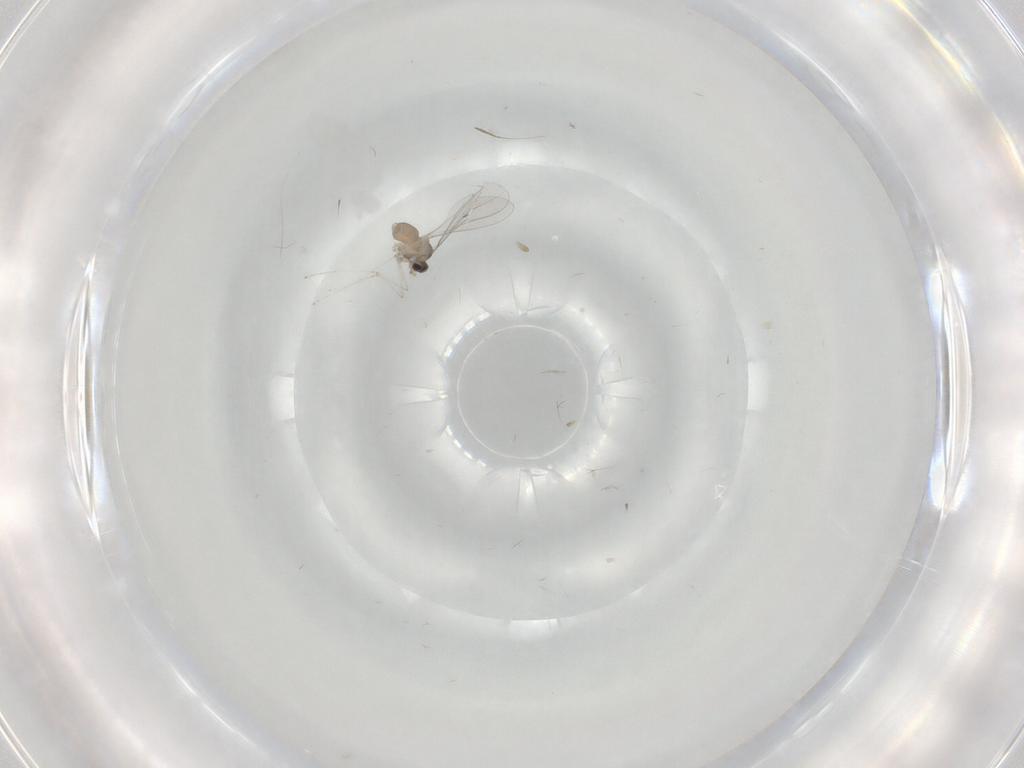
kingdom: Animalia
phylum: Arthropoda
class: Insecta
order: Diptera
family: Cecidomyiidae
